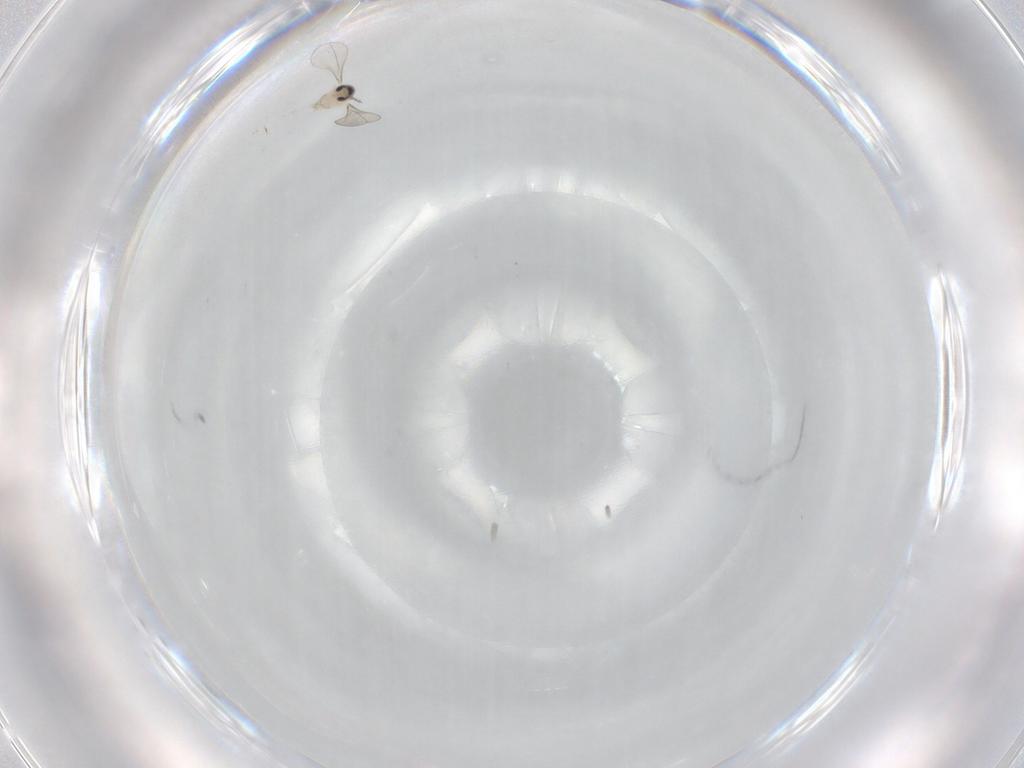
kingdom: Animalia
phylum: Arthropoda
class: Insecta
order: Diptera
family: Cecidomyiidae
